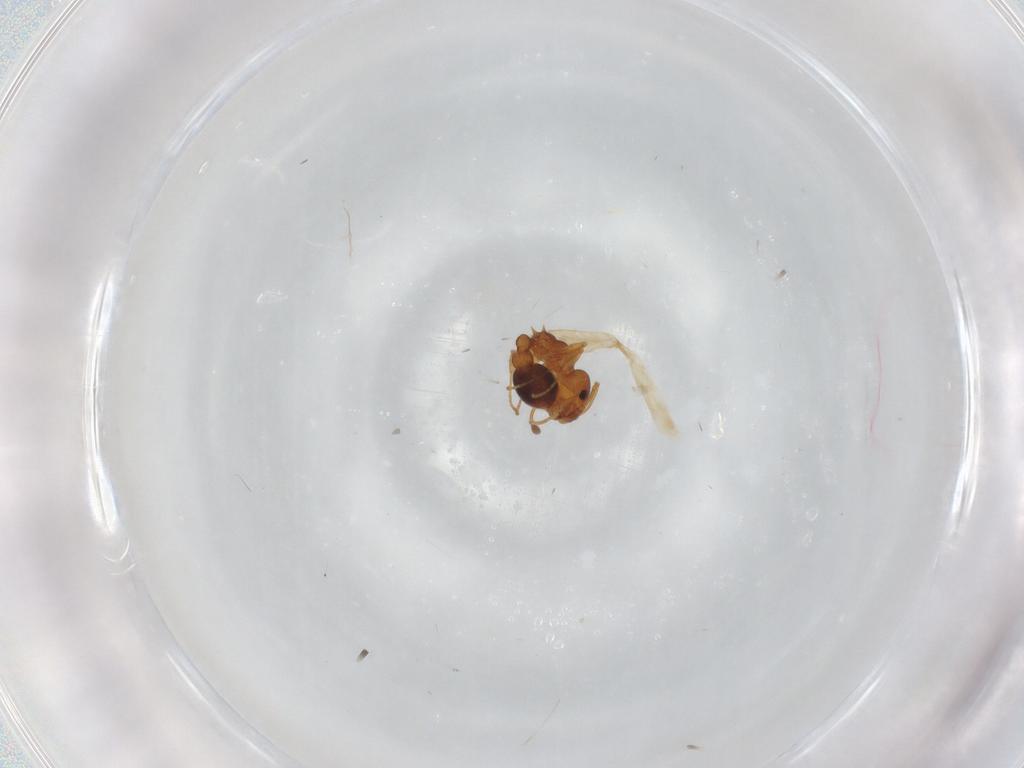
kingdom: Animalia
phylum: Arthropoda
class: Insecta
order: Hymenoptera
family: Formicidae
